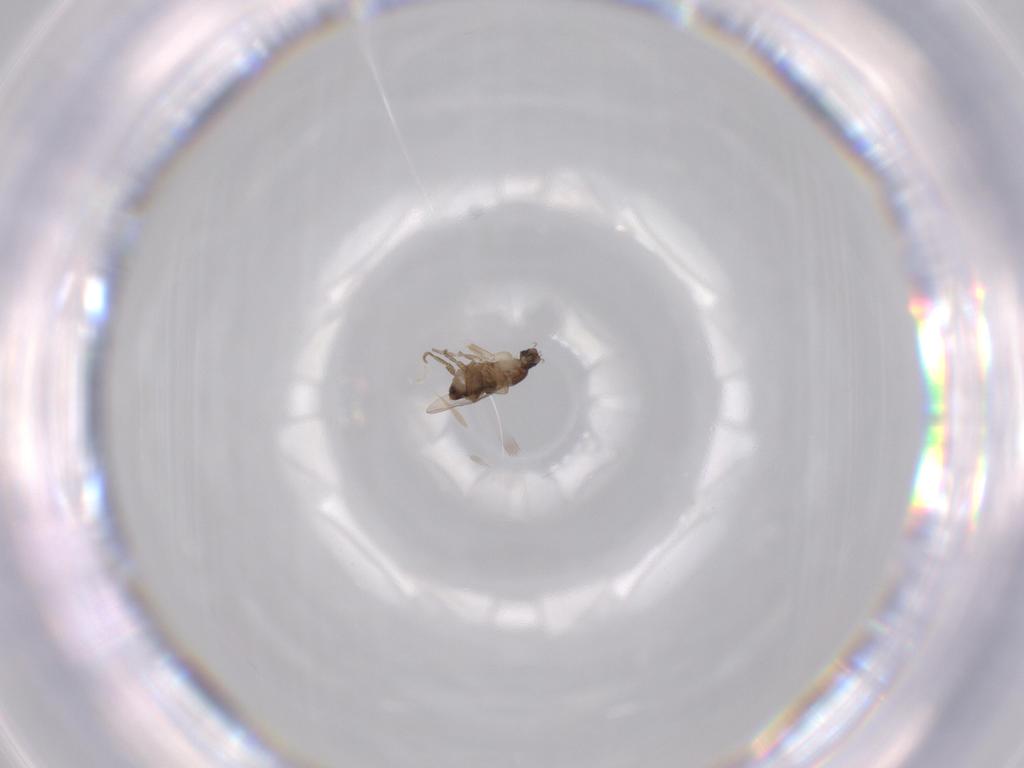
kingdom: Animalia
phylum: Arthropoda
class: Insecta
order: Diptera
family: Phoridae
